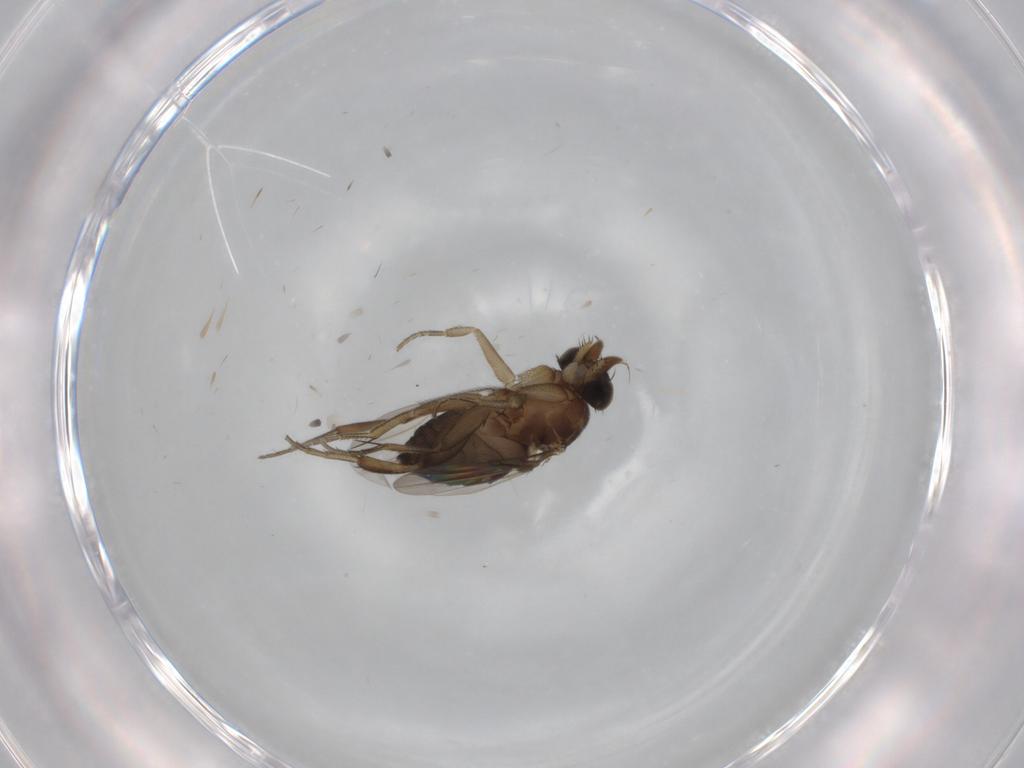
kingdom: Animalia
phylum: Arthropoda
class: Insecta
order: Diptera
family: Phoridae
